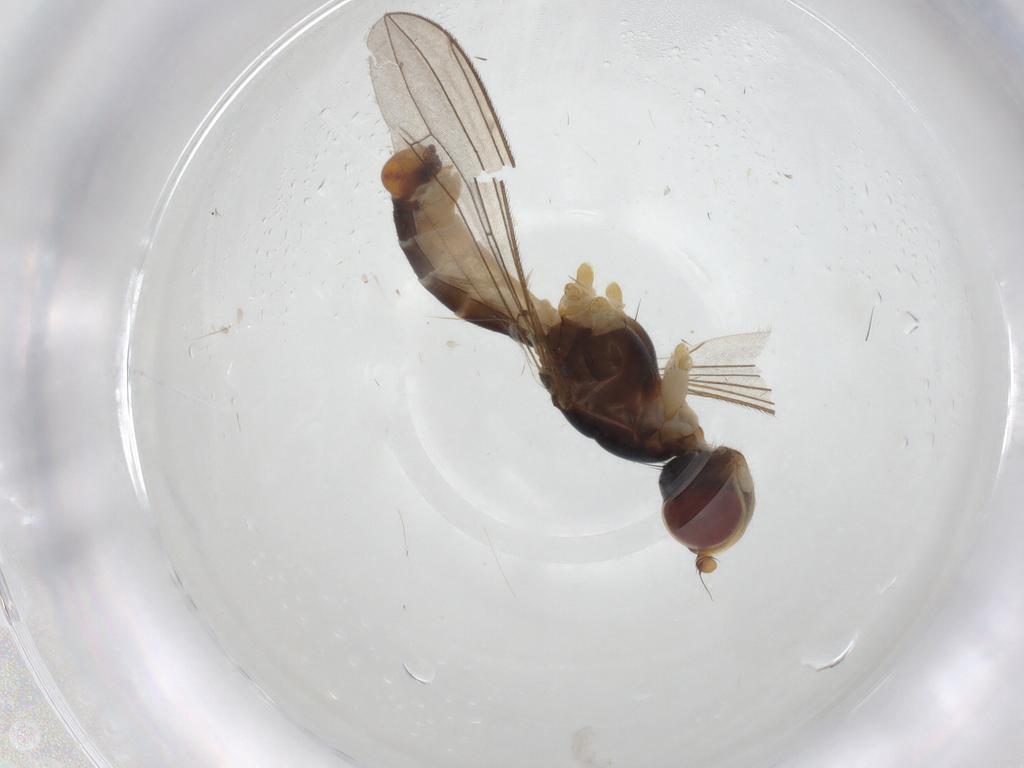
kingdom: Animalia
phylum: Arthropoda
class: Insecta
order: Diptera
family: Micropezidae
